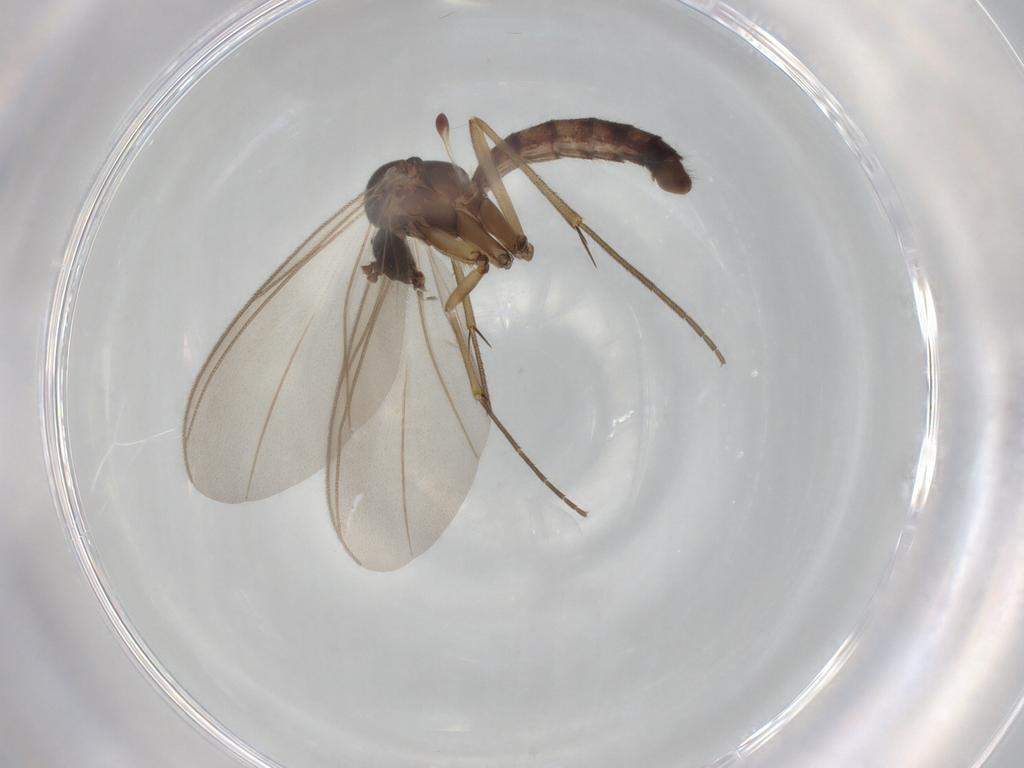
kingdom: Animalia
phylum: Arthropoda
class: Insecta
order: Diptera
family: Mycetophilidae
